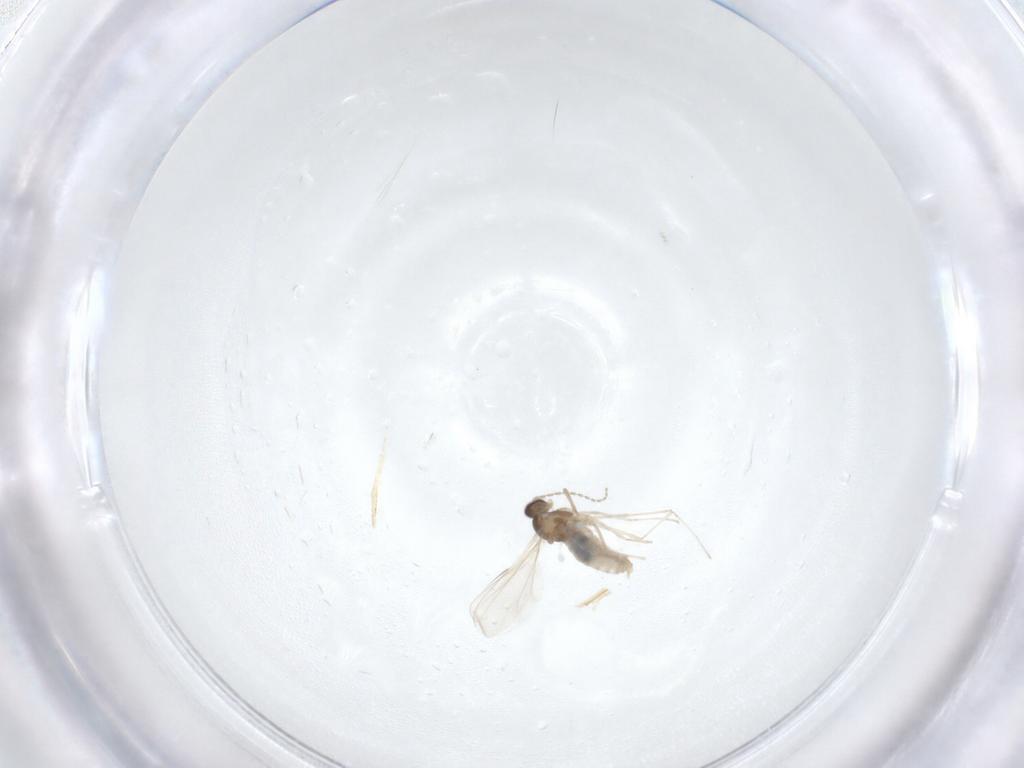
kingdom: Animalia
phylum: Arthropoda
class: Insecta
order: Diptera
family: Cecidomyiidae
